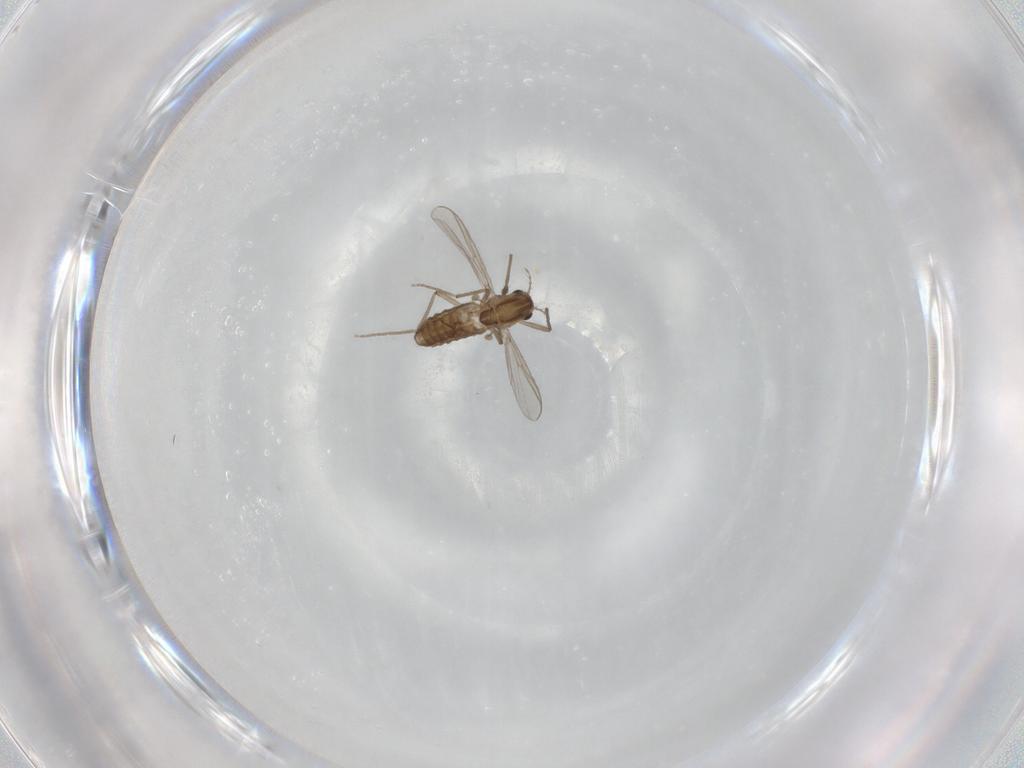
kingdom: Animalia
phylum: Arthropoda
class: Insecta
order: Diptera
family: Chironomidae
